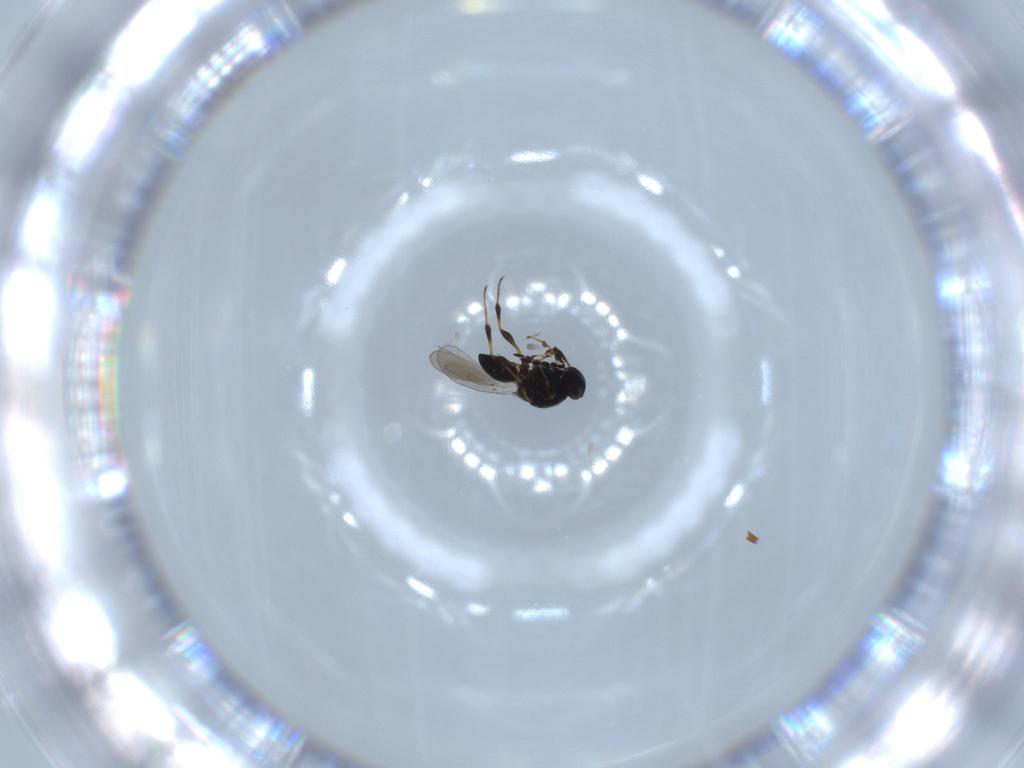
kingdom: Animalia
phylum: Arthropoda
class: Insecta
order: Hymenoptera
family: Platygastridae
